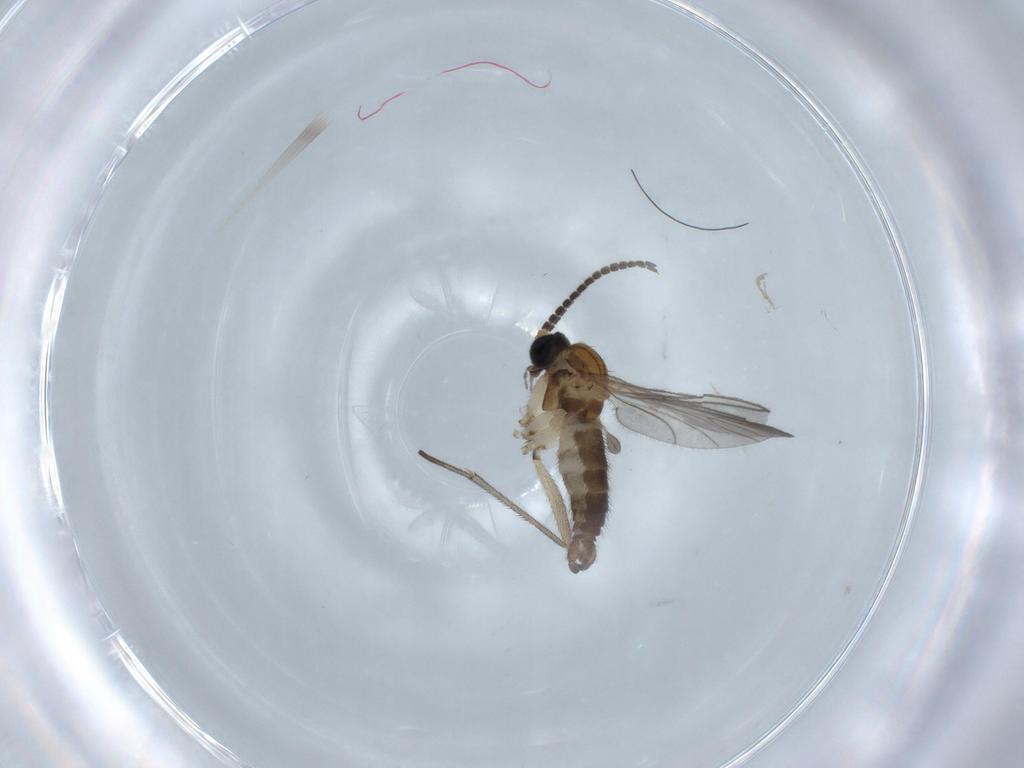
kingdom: Animalia
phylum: Arthropoda
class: Insecta
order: Diptera
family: Sciaridae
